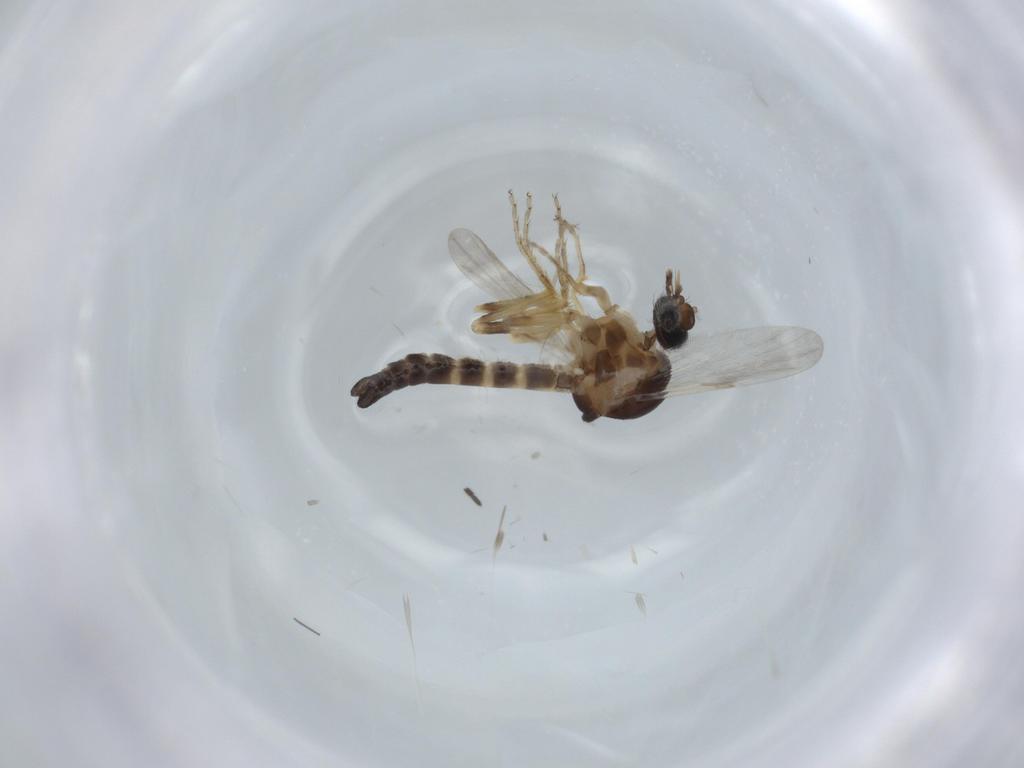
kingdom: Animalia
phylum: Arthropoda
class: Insecta
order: Diptera
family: Ceratopogonidae
